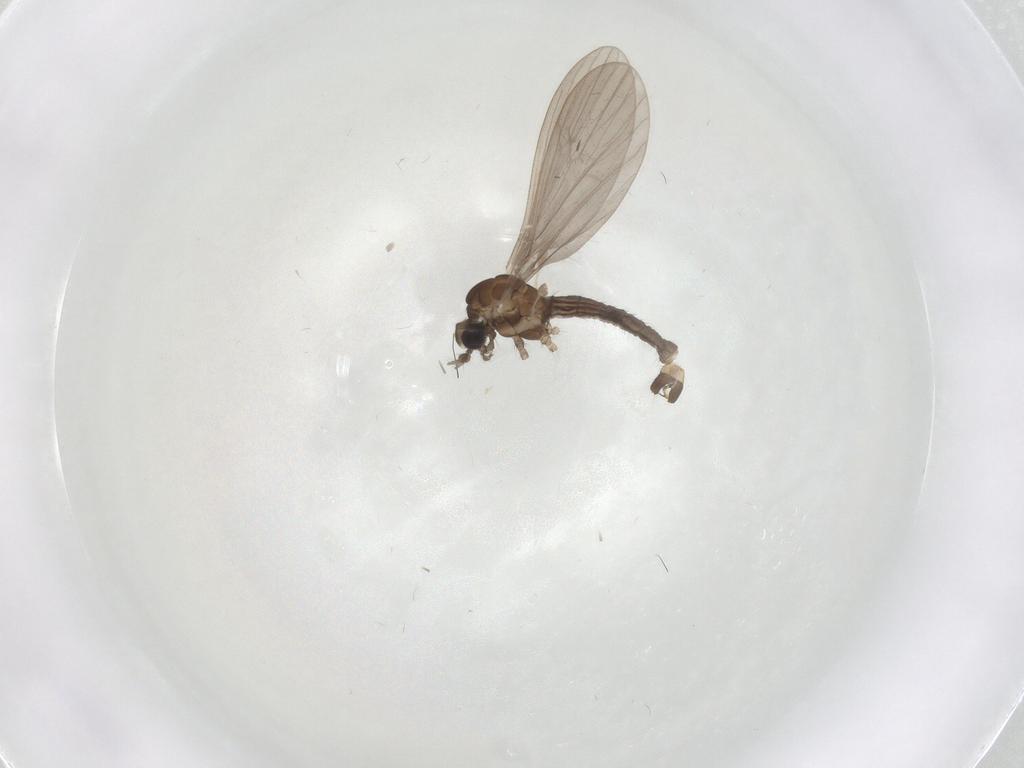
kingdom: Animalia
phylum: Arthropoda
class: Insecta
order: Diptera
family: Limoniidae
